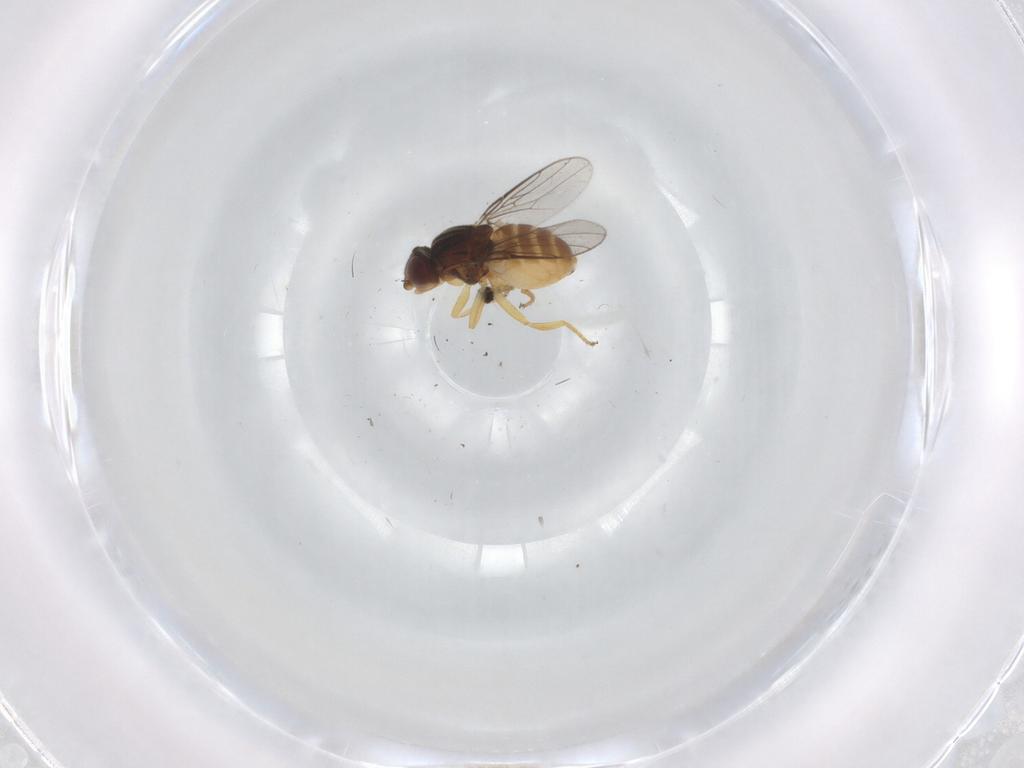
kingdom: Animalia
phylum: Arthropoda
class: Insecta
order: Diptera
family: Chloropidae
